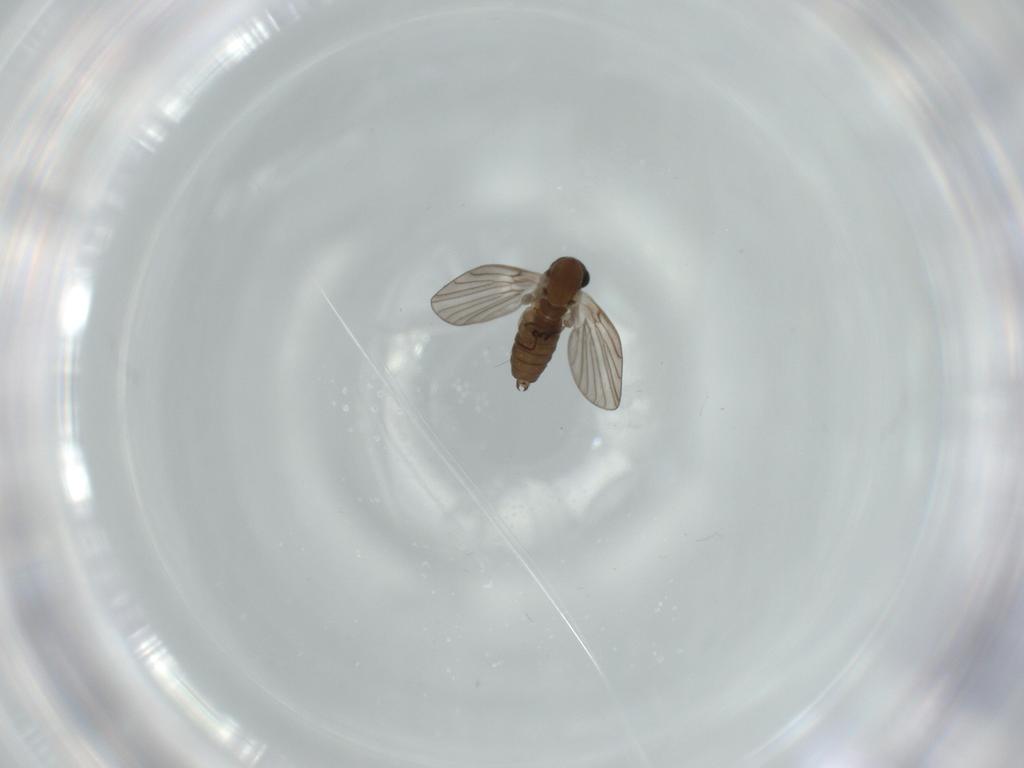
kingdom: Animalia
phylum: Arthropoda
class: Insecta
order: Diptera
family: Psychodidae
